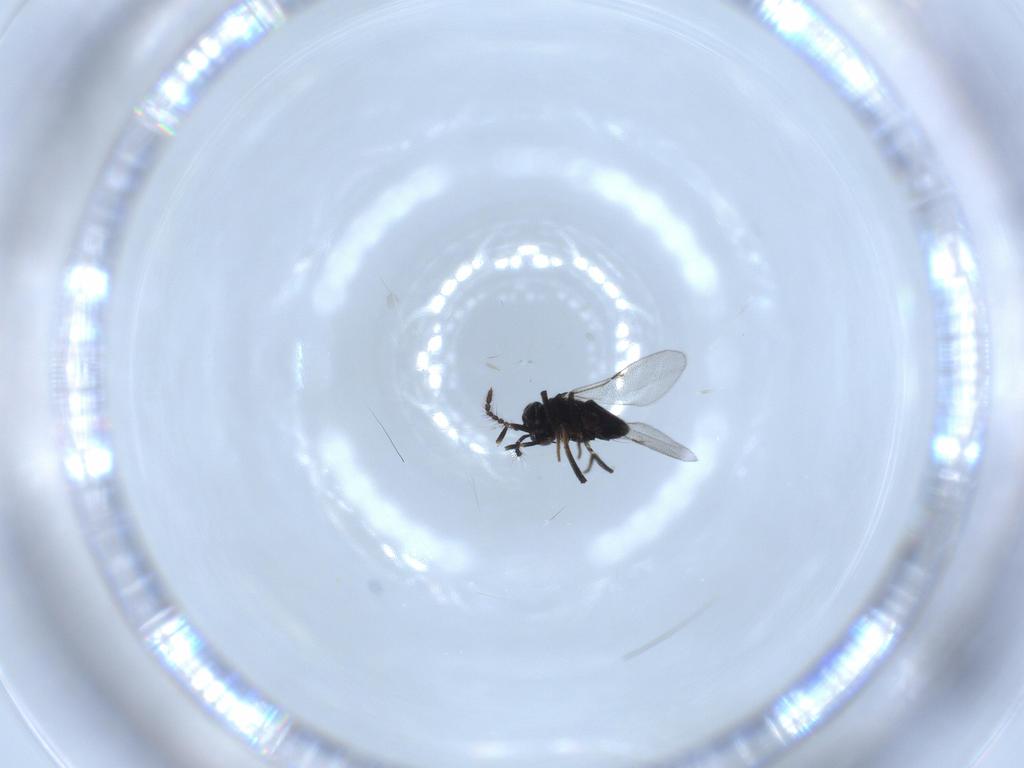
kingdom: Animalia
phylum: Arthropoda
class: Insecta
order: Hymenoptera
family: Encyrtidae
